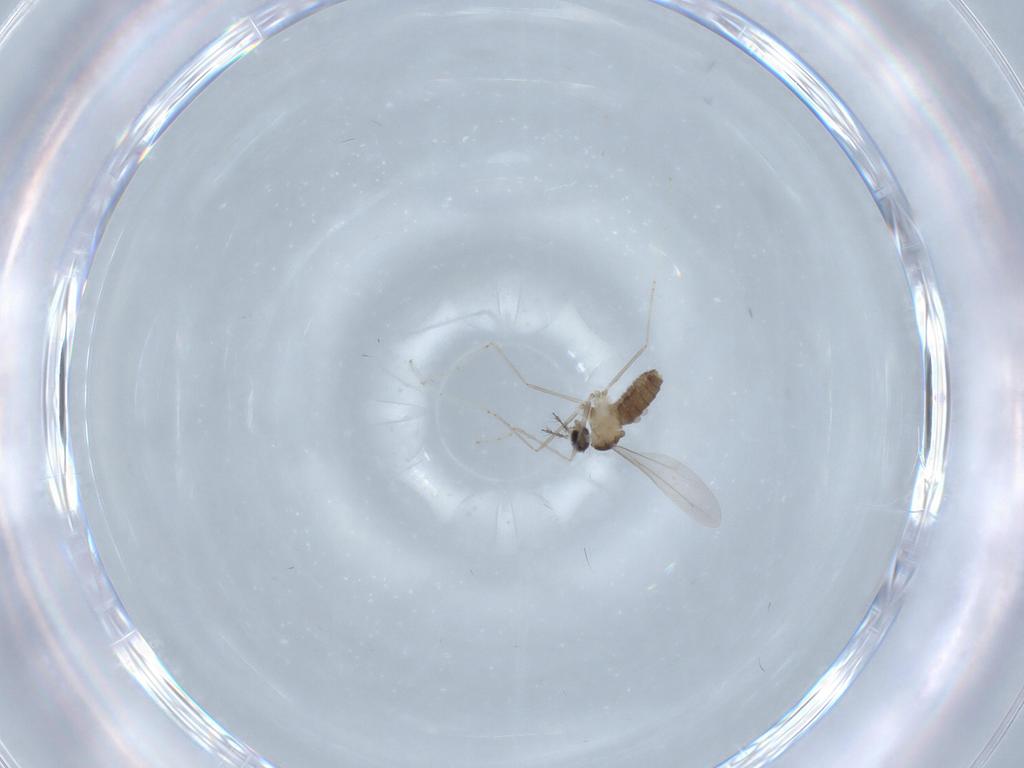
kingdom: Animalia
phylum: Arthropoda
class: Insecta
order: Diptera
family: Cecidomyiidae
